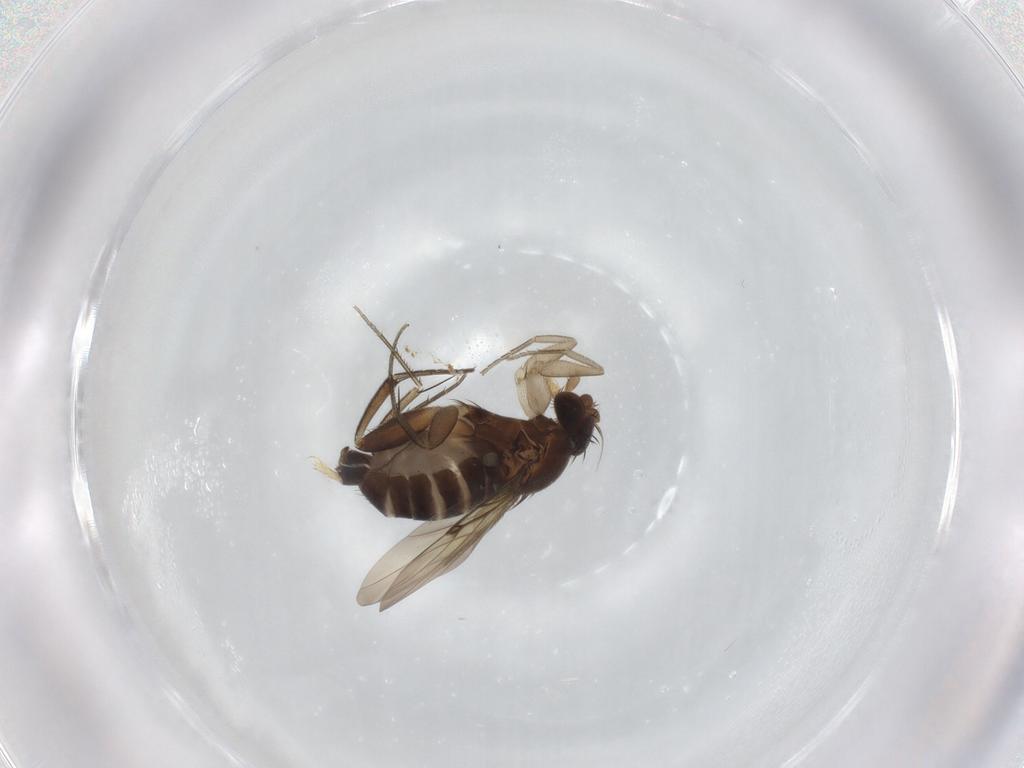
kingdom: Animalia
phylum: Arthropoda
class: Insecta
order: Diptera
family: Phoridae
